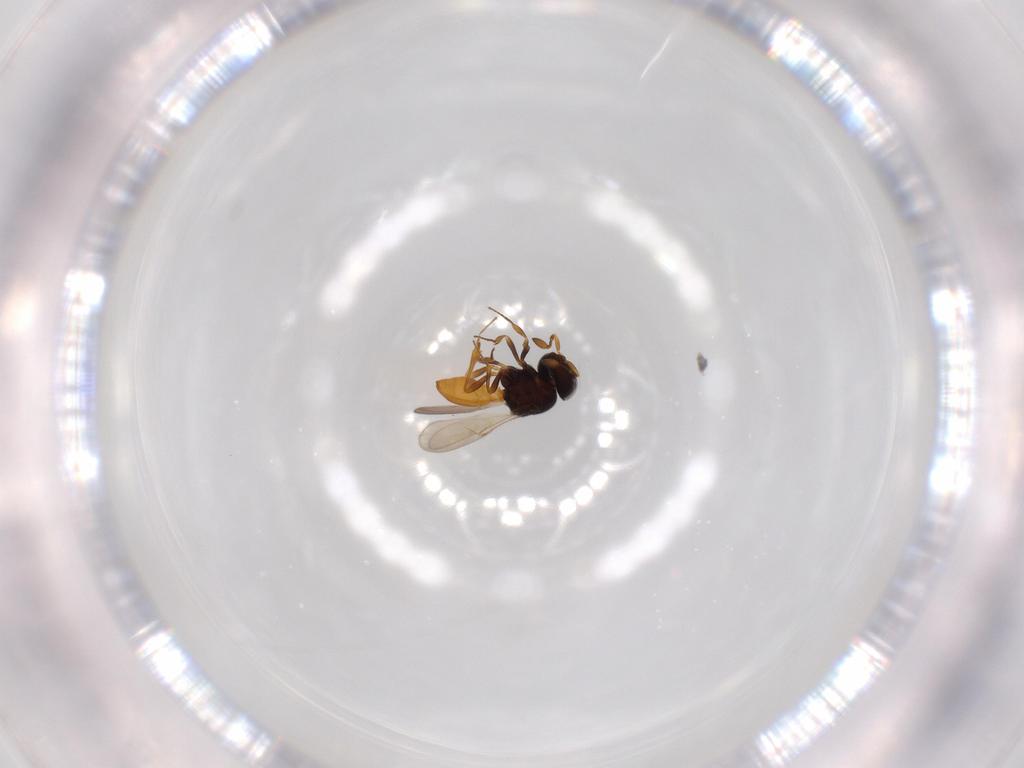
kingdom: Animalia
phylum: Arthropoda
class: Insecta
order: Hymenoptera
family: Scelionidae
